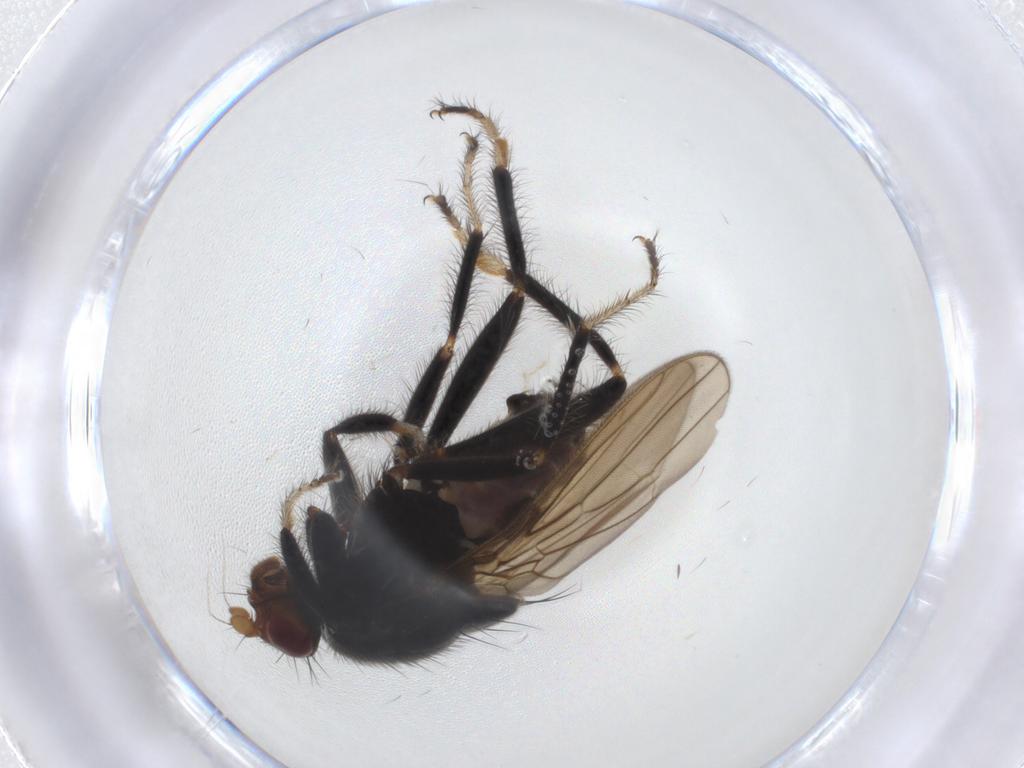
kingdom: Animalia
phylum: Arthropoda
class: Insecta
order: Diptera
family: Sphaeroceridae
